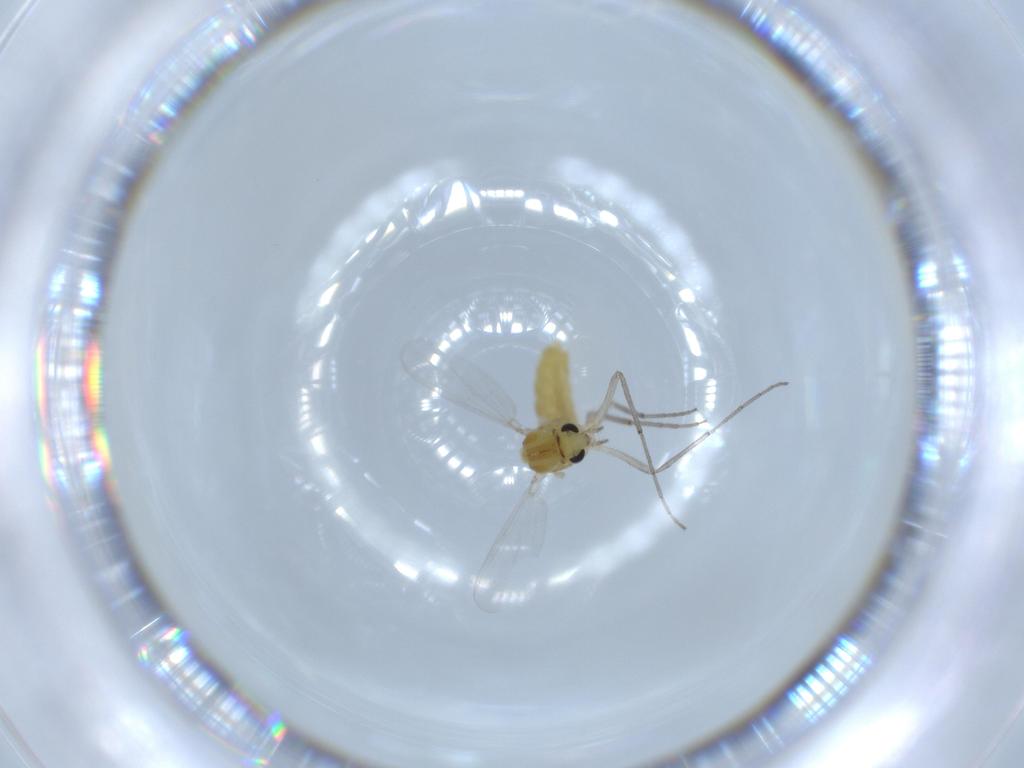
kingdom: Animalia
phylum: Arthropoda
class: Insecta
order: Diptera
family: Chironomidae
